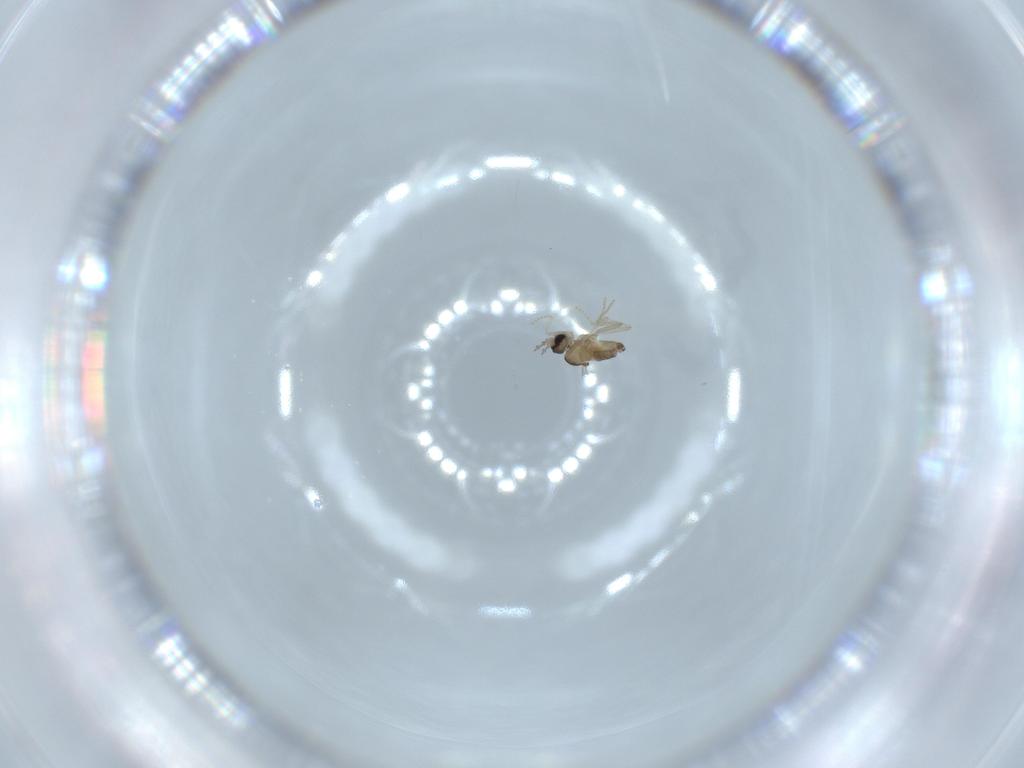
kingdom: Animalia
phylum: Arthropoda
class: Insecta
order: Diptera
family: Cecidomyiidae
